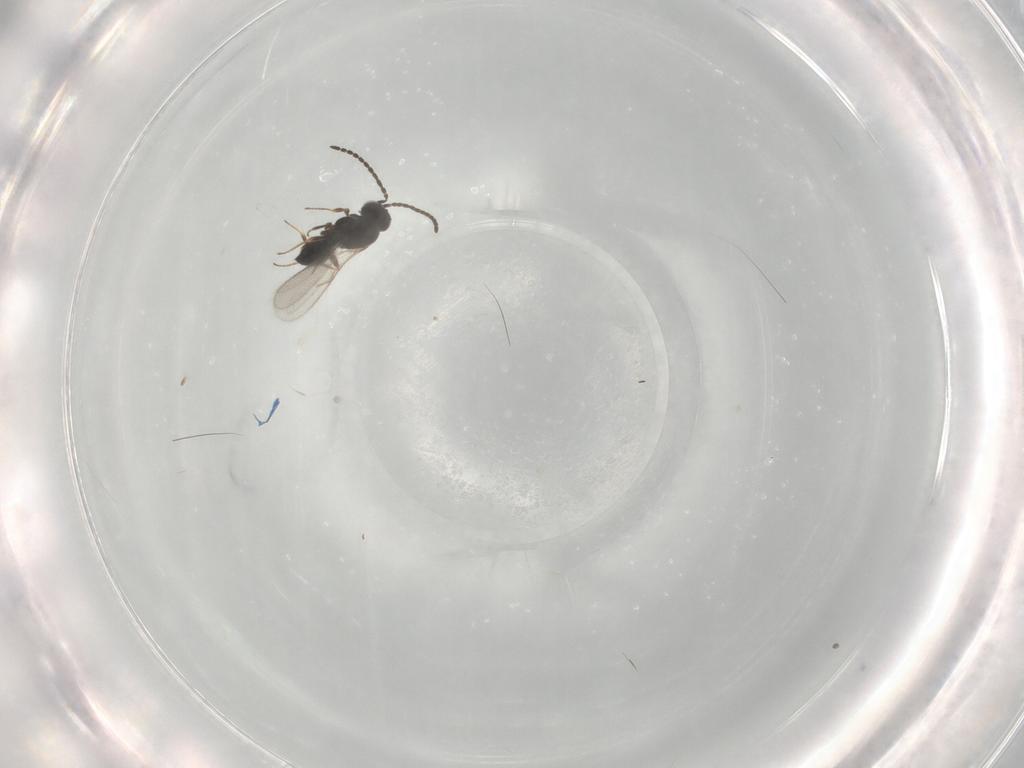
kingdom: Animalia
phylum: Arthropoda
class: Insecta
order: Hymenoptera
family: Scelionidae
